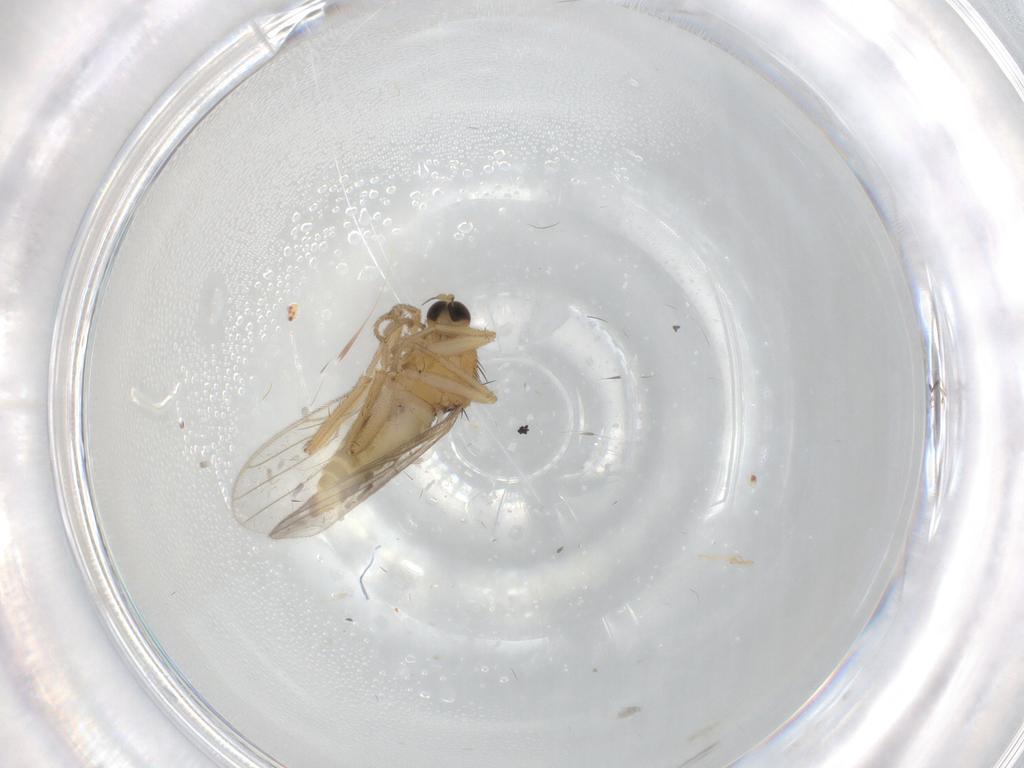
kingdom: Animalia
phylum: Arthropoda
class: Insecta
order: Diptera
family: Hybotidae
